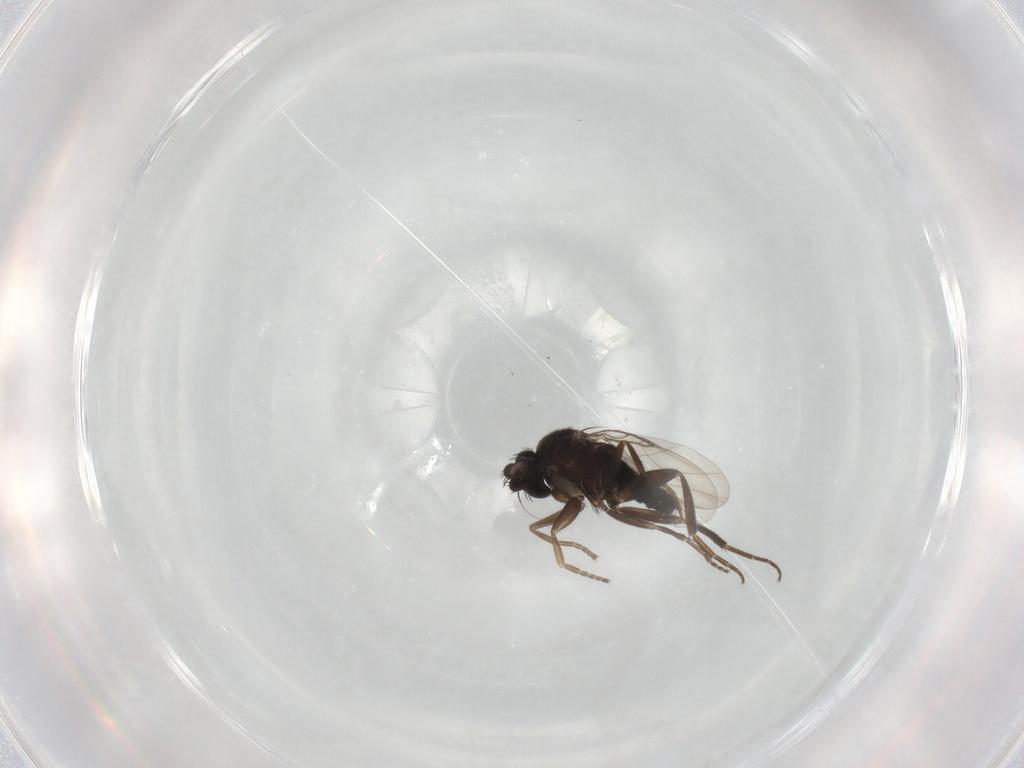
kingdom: Animalia
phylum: Arthropoda
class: Insecta
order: Diptera
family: Phoridae
